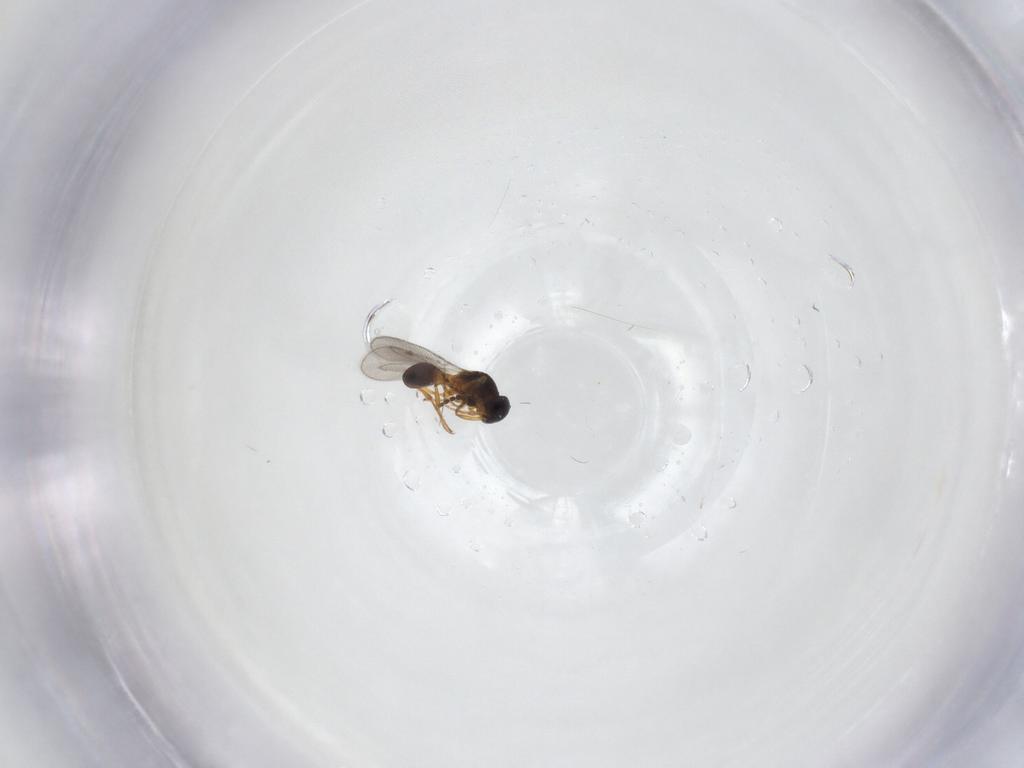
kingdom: Animalia
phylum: Arthropoda
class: Insecta
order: Hymenoptera
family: Platygastridae
